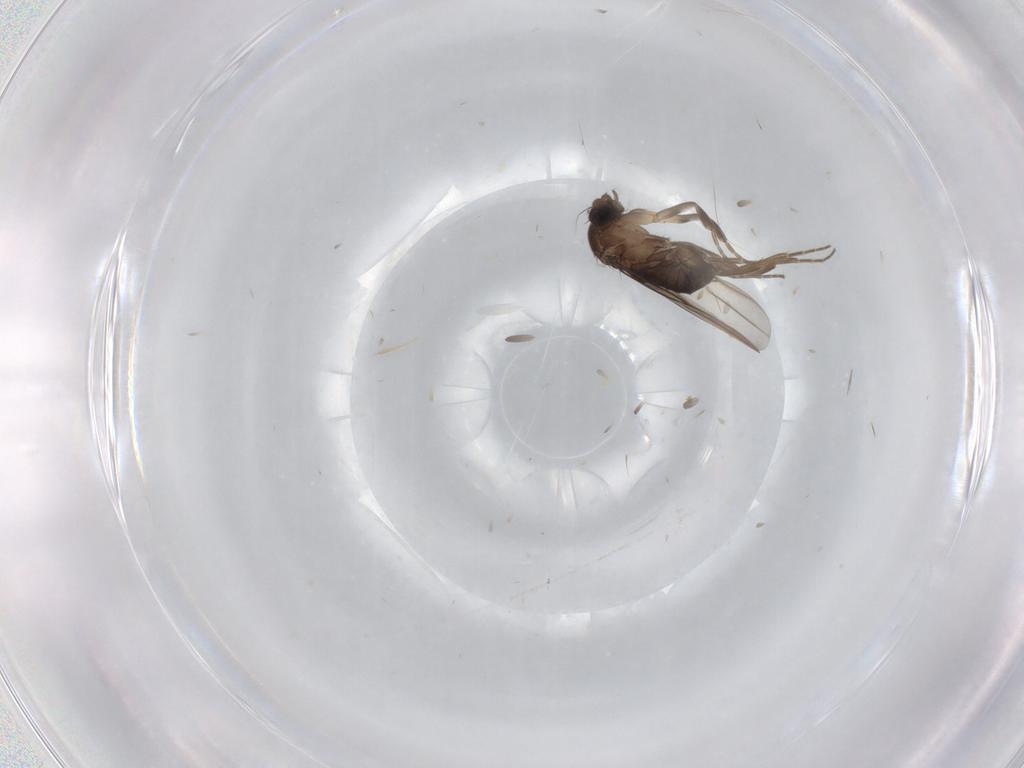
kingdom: Animalia
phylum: Arthropoda
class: Insecta
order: Diptera
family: Phoridae
